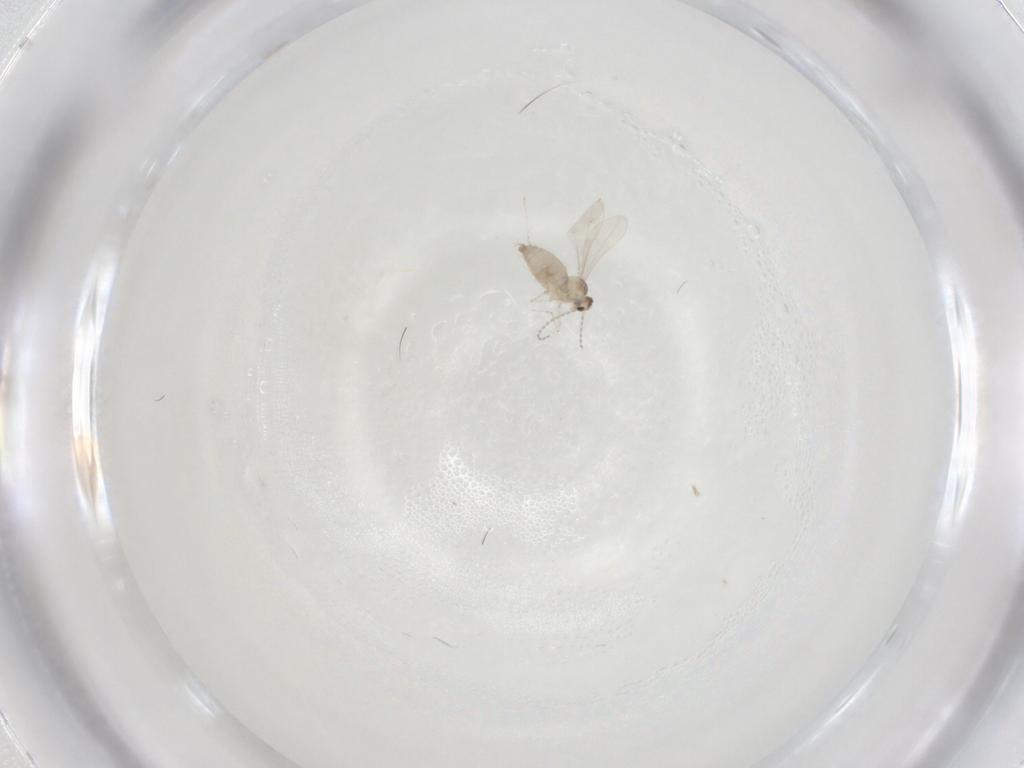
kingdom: Animalia
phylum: Arthropoda
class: Insecta
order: Diptera
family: Cecidomyiidae
